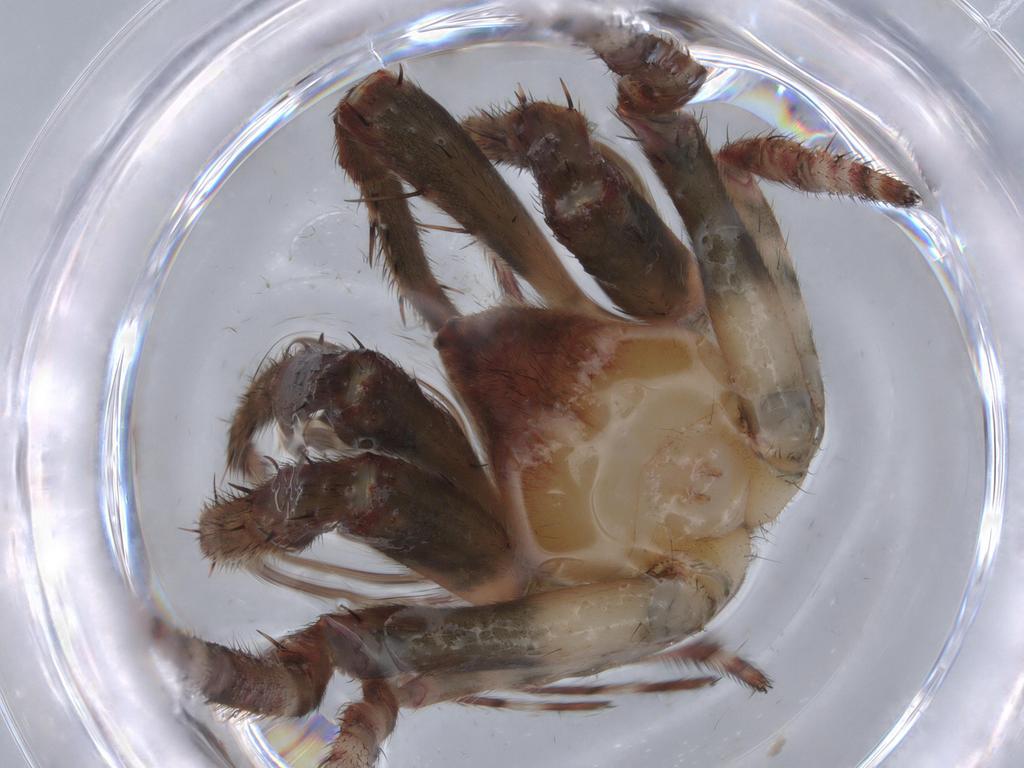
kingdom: Animalia
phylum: Arthropoda
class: Arachnida
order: Araneae
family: Araneidae
